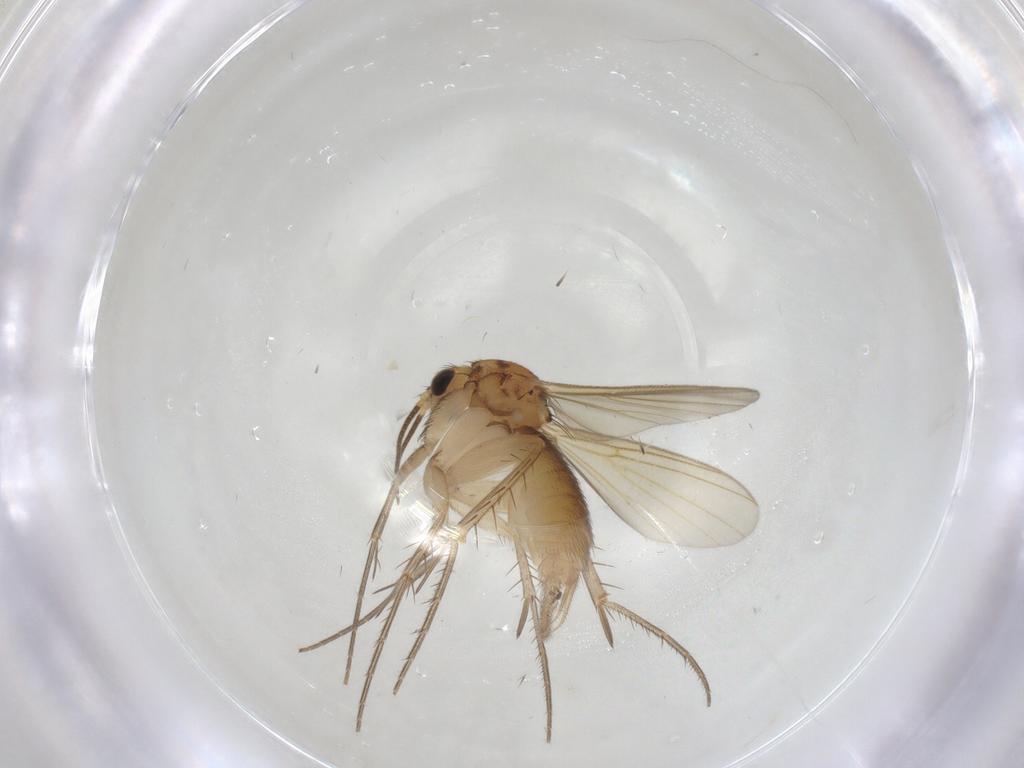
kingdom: Animalia
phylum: Arthropoda
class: Insecta
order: Diptera
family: Mycetophilidae
